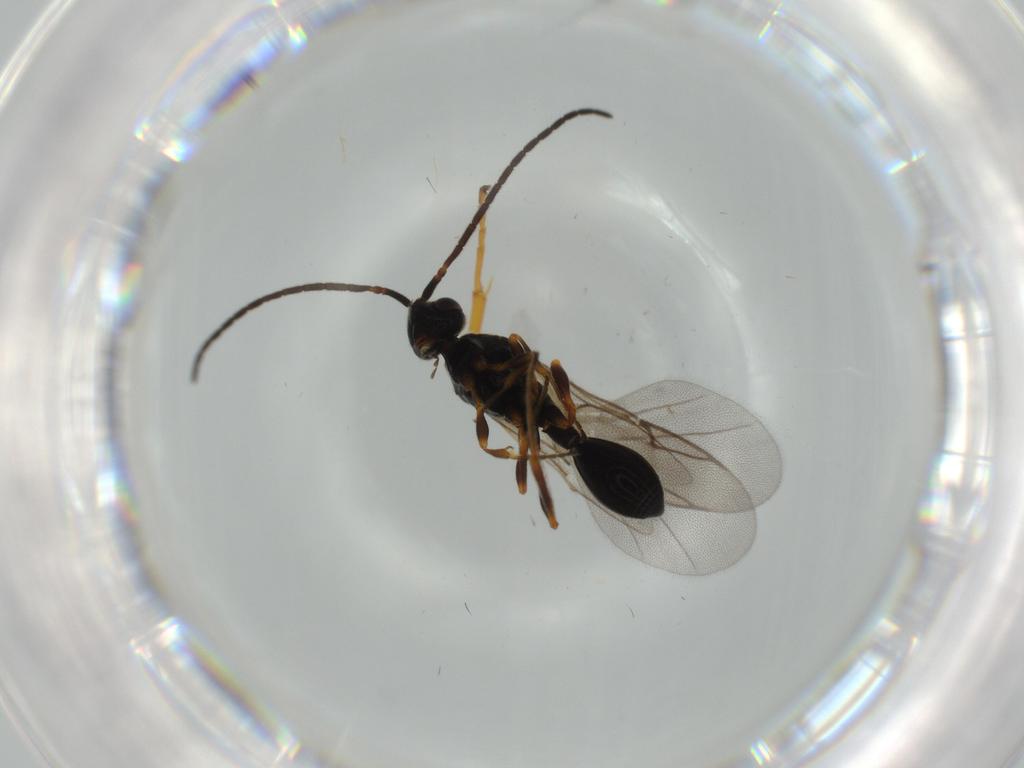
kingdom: Animalia
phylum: Arthropoda
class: Insecta
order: Hymenoptera
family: Ichneumonidae
